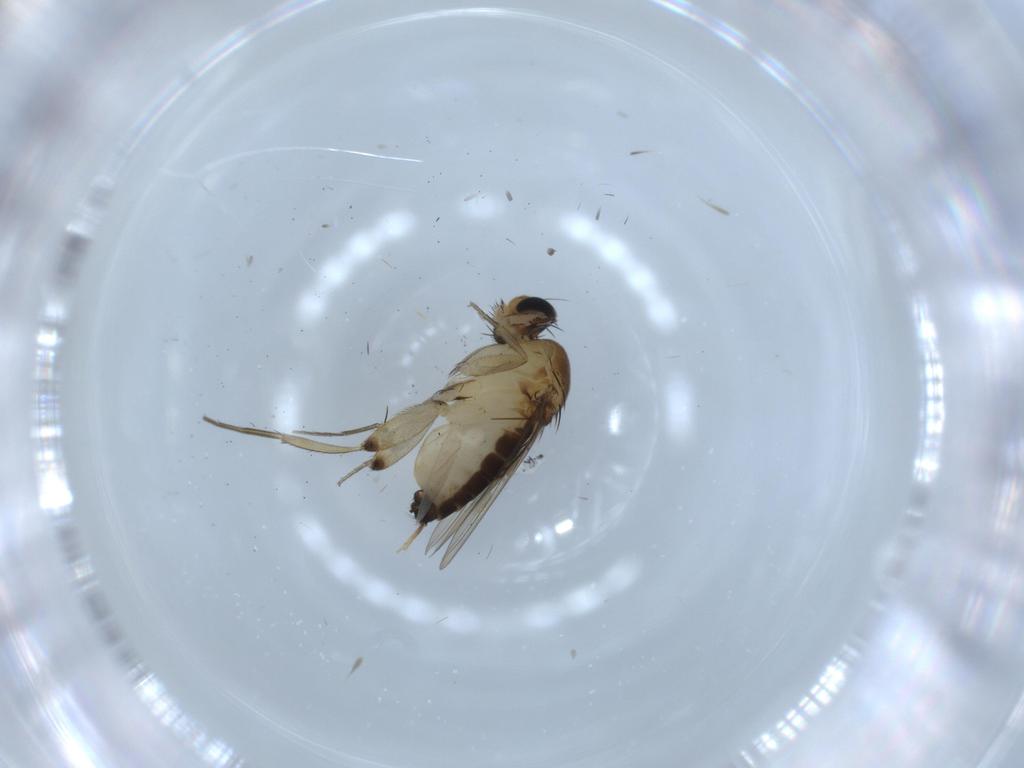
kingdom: Animalia
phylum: Arthropoda
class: Insecta
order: Diptera
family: Phoridae
